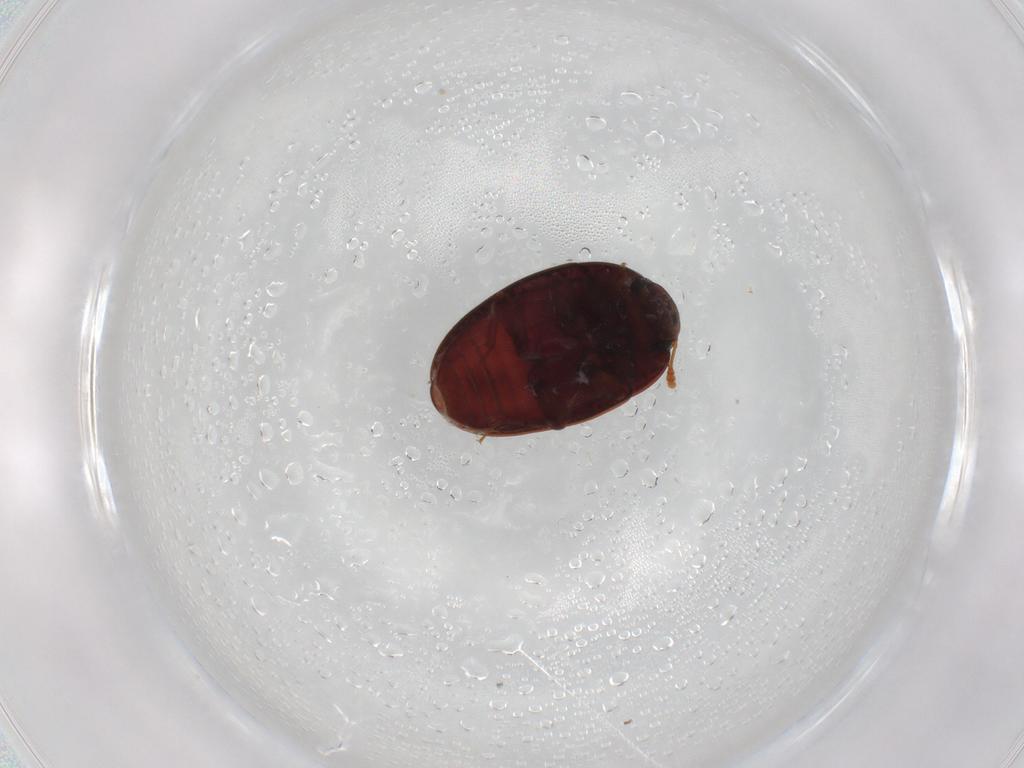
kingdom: Animalia
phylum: Arthropoda
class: Insecta
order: Coleoptera
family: Archeocrypticidae
